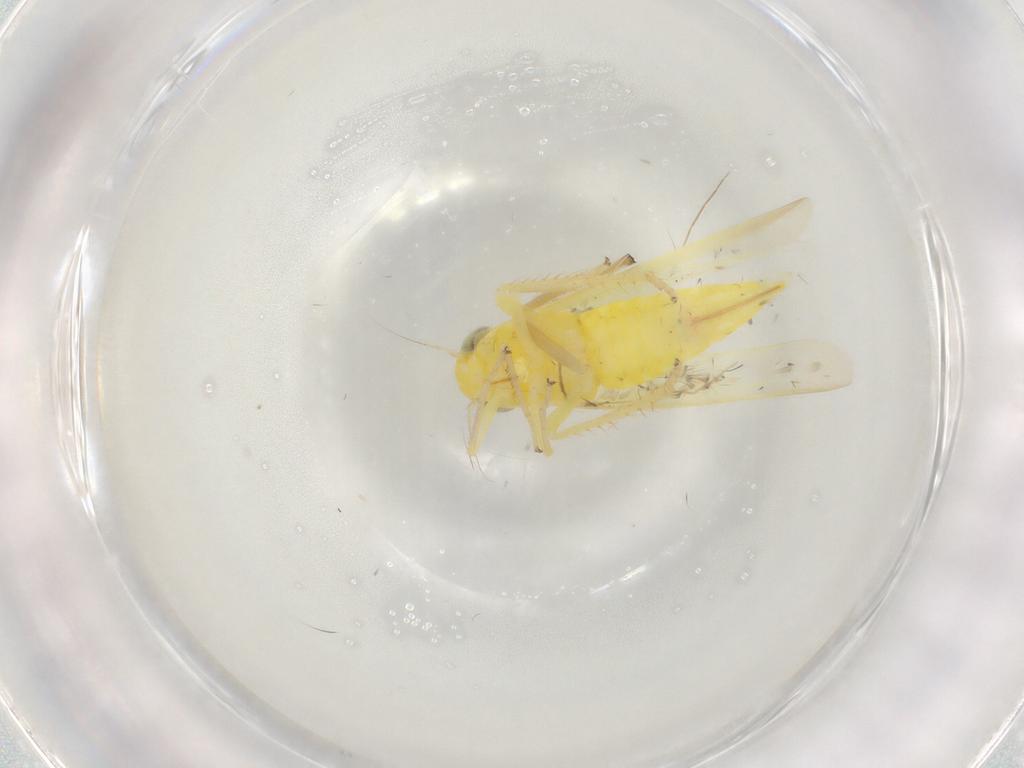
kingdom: Animalia
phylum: Arthropoda
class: Insecta
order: Hemiptera
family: Cicadellidae
